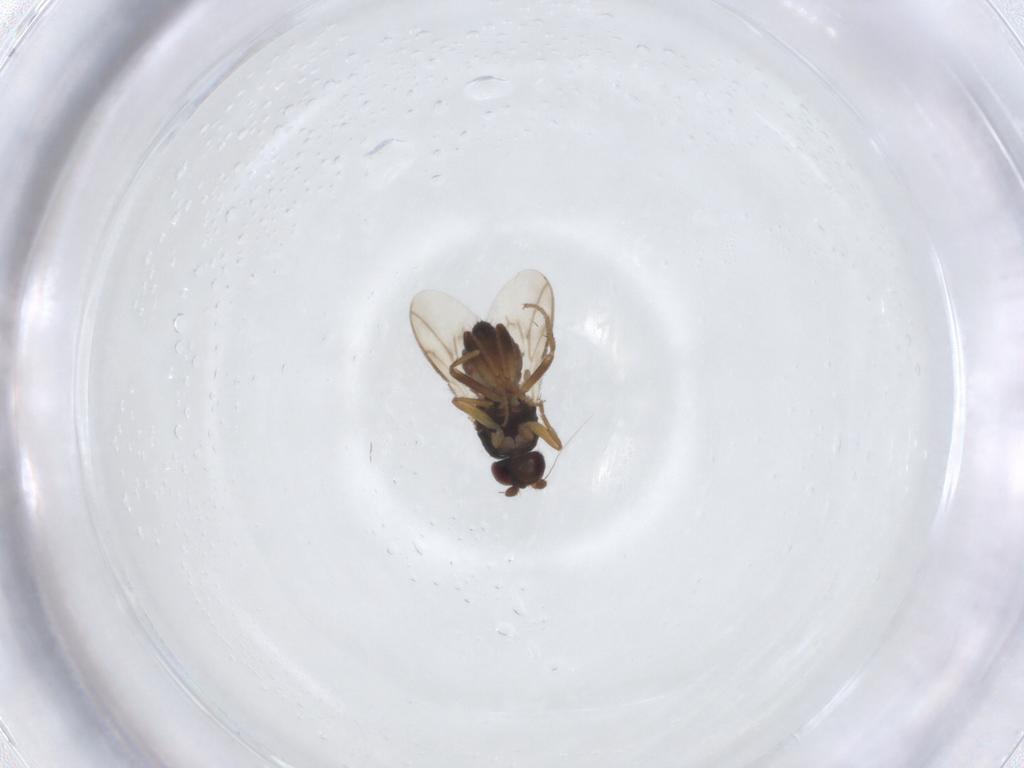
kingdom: Animalia
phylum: Arthropoda
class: Insecta
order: Diptera
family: Sphaeroceridae
